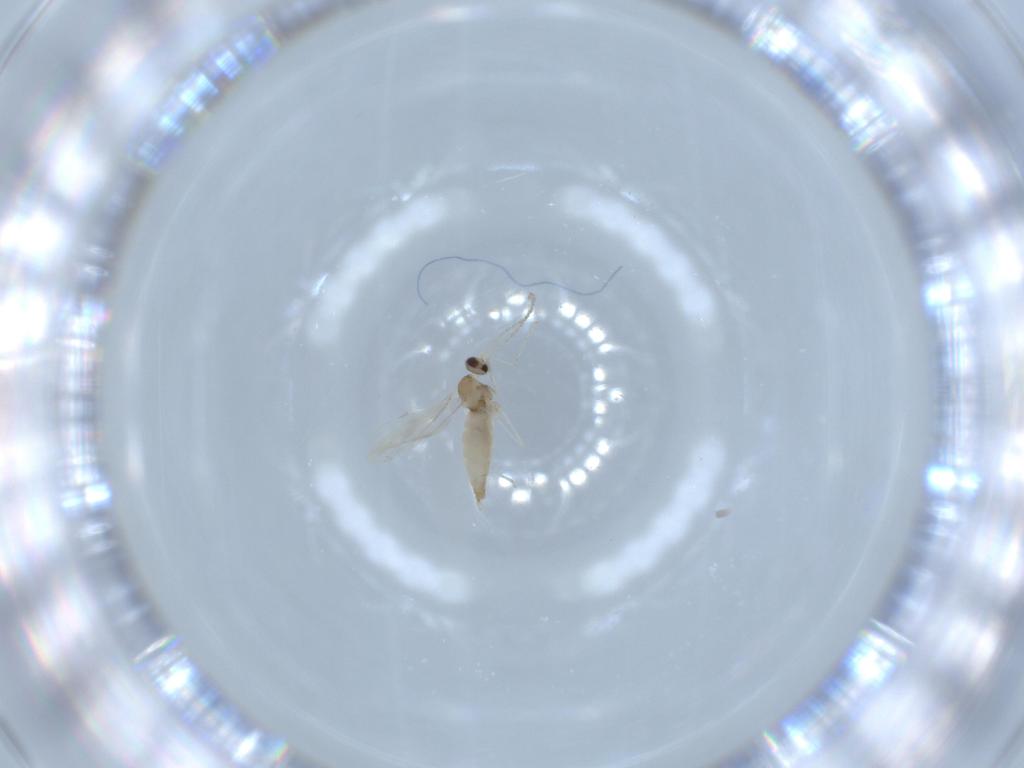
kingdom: Animalia
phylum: Arthropoda
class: Insecta
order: Diptera
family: Cecidomyiidae
